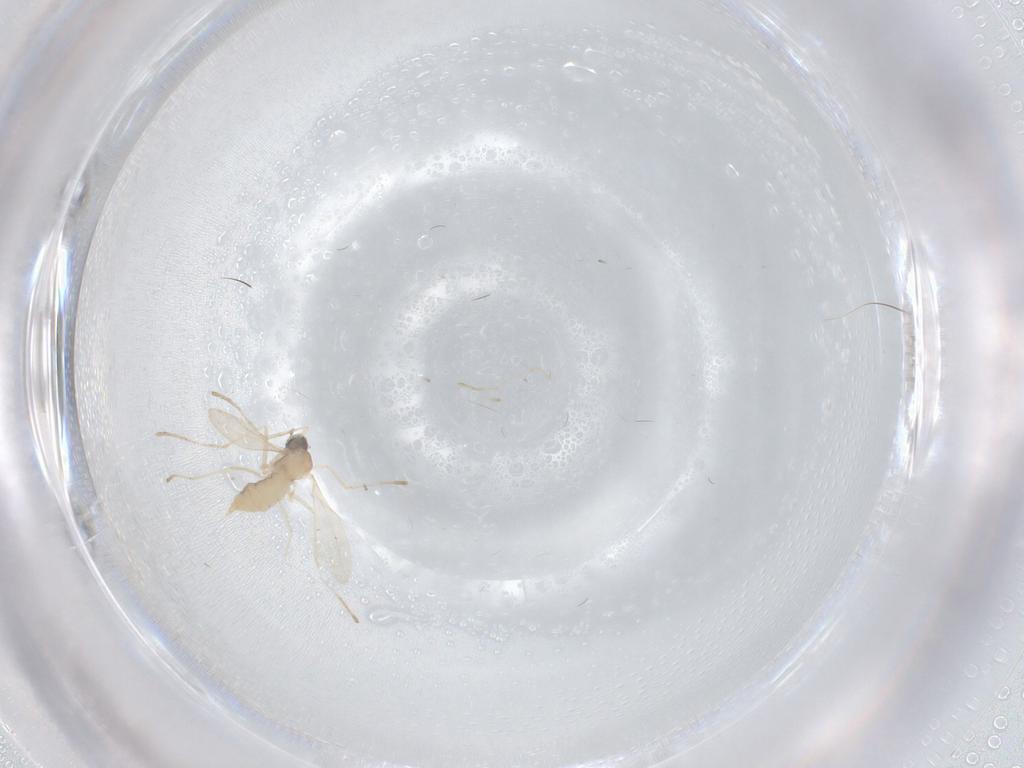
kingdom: Animalia
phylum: Arthropoda
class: Insecta
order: Diptera
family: Cecidomyiidae
